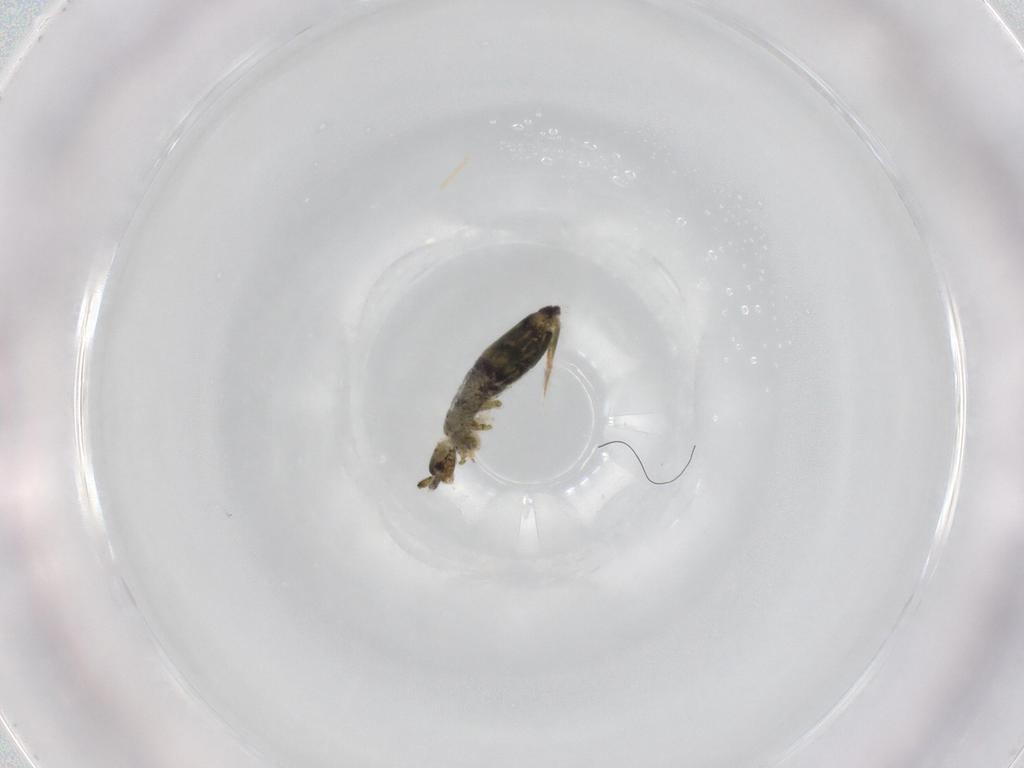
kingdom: Animalia
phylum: Arthropoda
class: Collembola
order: Entomobryomorpha
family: Entomobryidae
